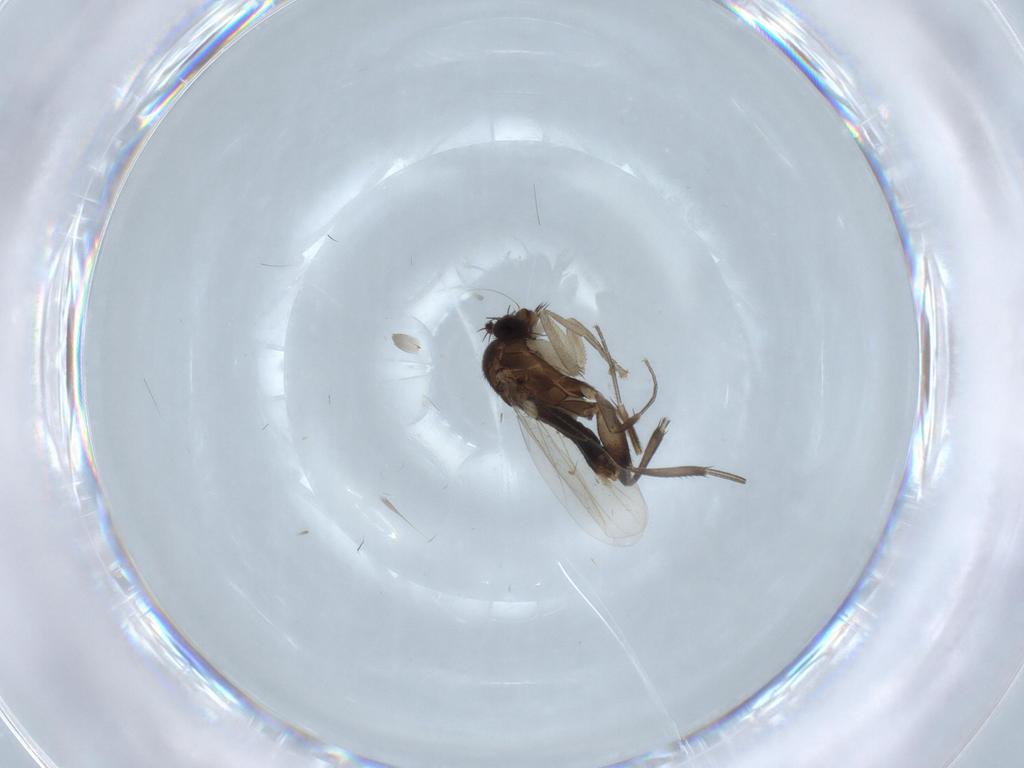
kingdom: Animalia
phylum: Arthropoda
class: Insecta
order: Diptera
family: Phoridae
